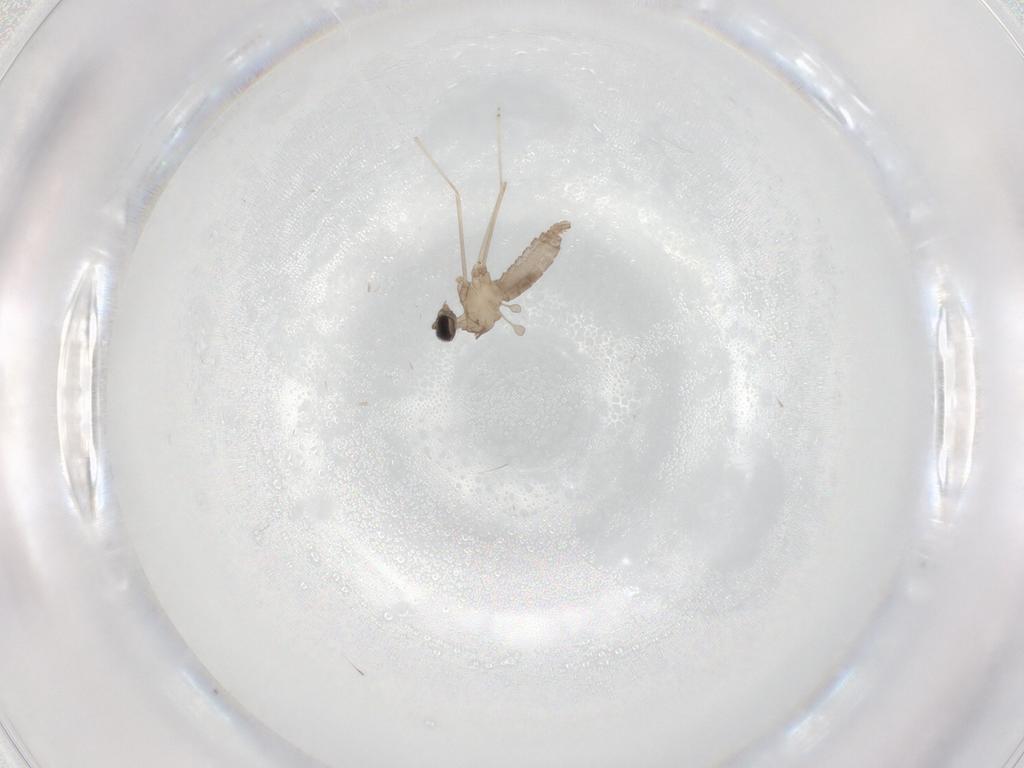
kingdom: Animalia
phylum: Arthropoda
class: Insecta
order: Diptera
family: Cecidomyiidae
